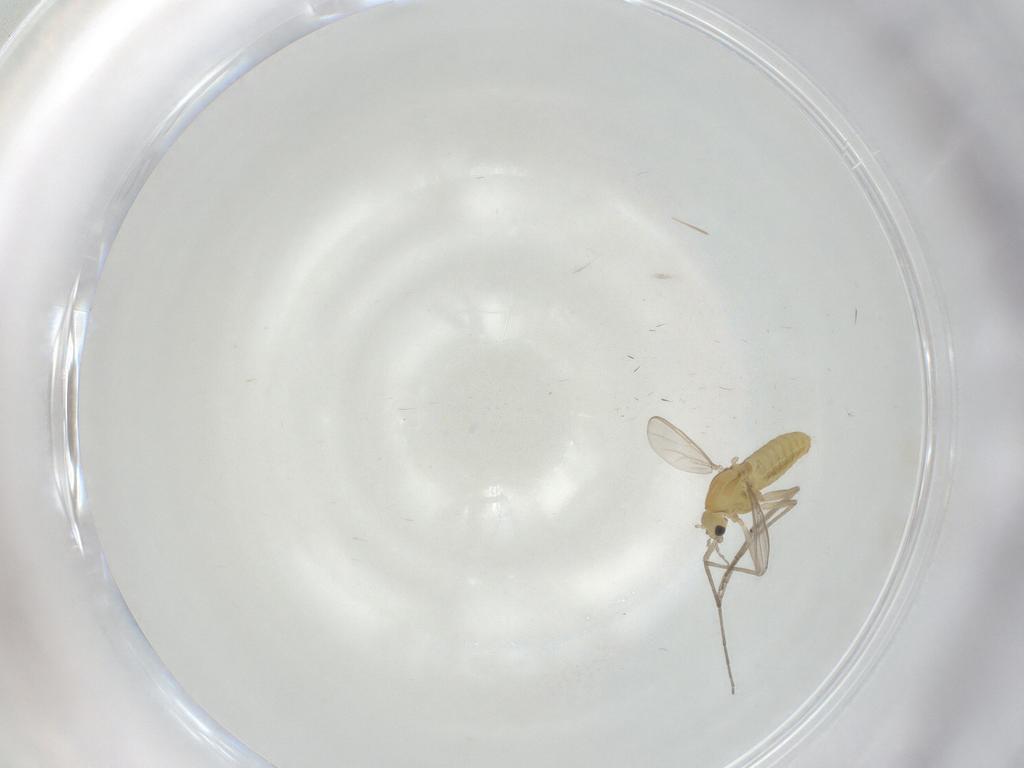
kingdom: Animalia
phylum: Arthropoda
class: Insecta
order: Diptera
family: Chironomidae
